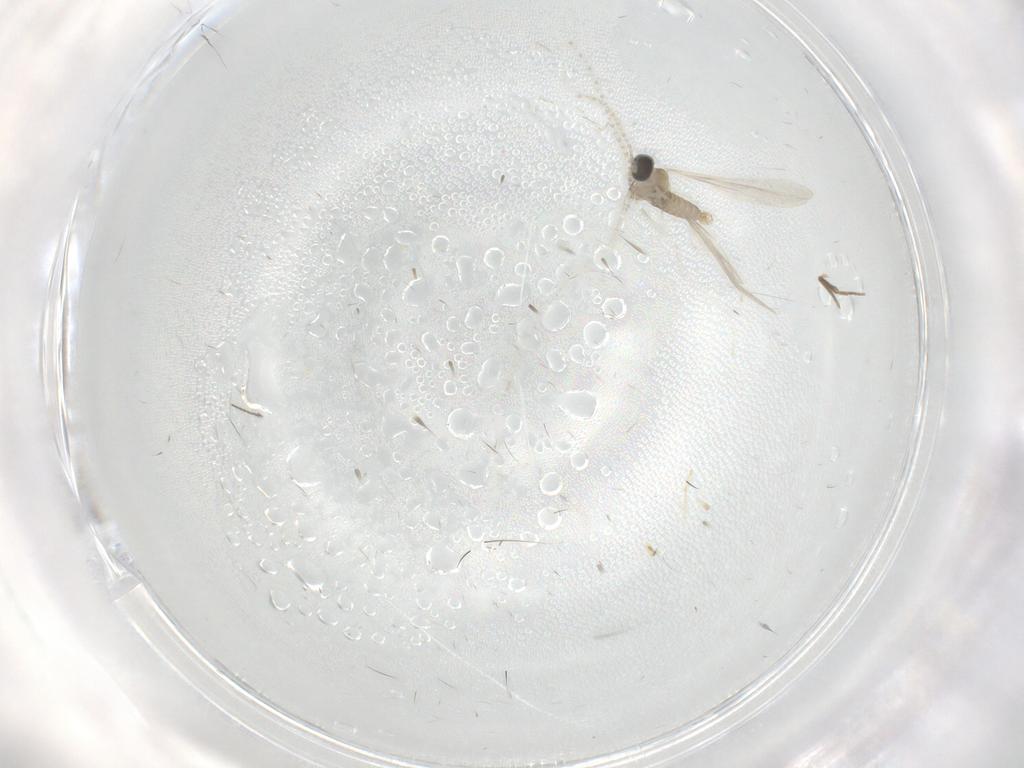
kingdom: Animalia
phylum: Arthropoda
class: Insecta
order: Diptera
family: Cecidomyiidae
